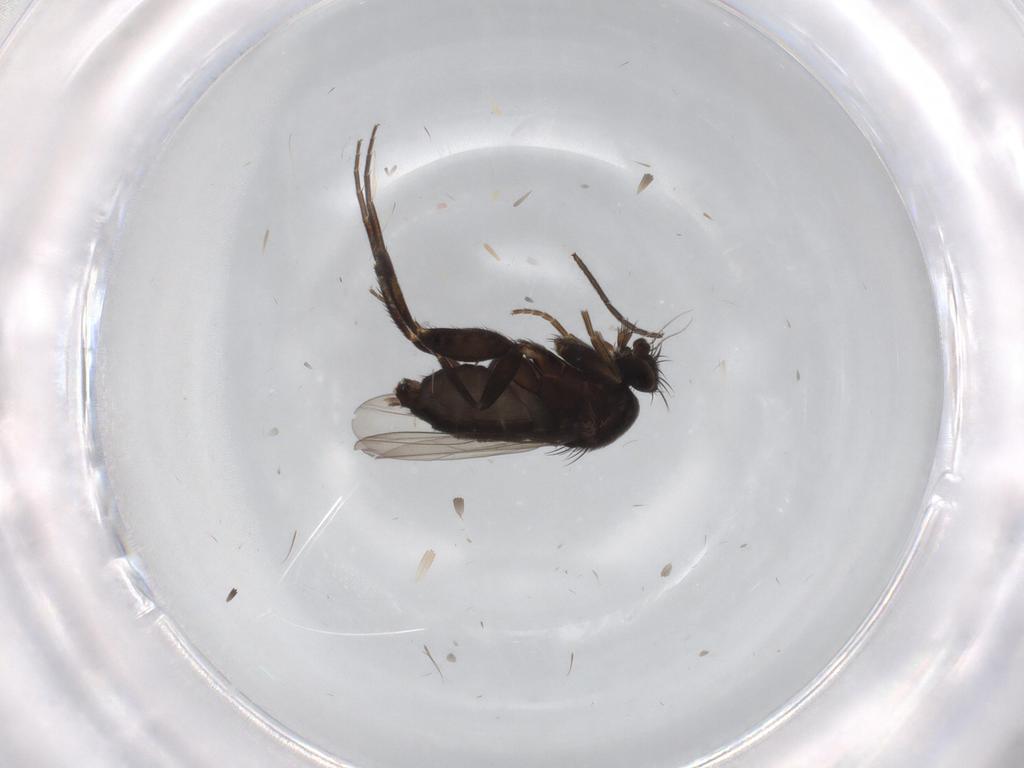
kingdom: Animalia
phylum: Arthropoda
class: Insecta
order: Diptera
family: Phoridae
